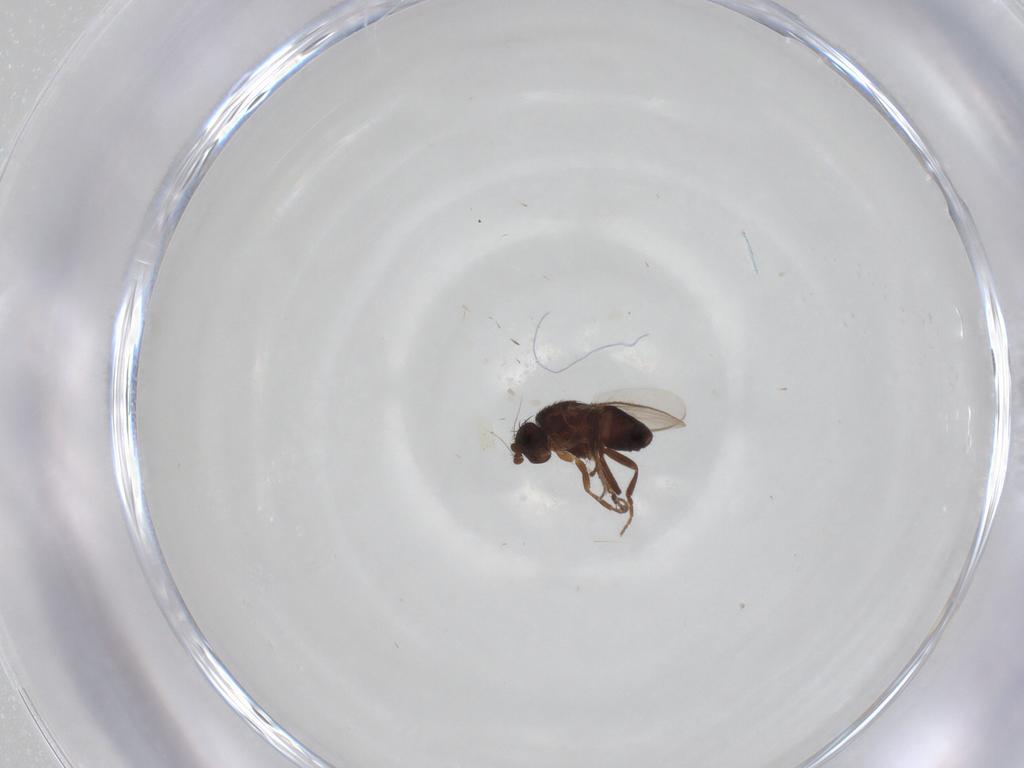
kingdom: Animalia
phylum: Arthropoda
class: Insecta
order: Diptera
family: Sphaeroceridae
